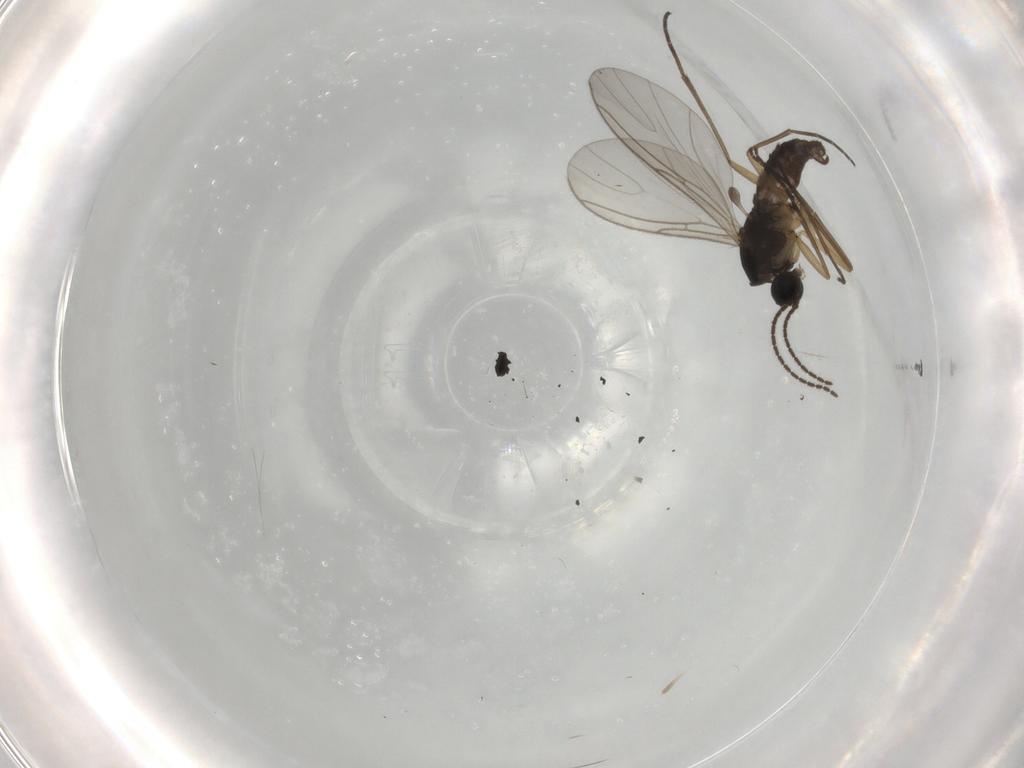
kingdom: Animalia
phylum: Arthropoda
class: Insecta
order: Diptera
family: Sciaridae
